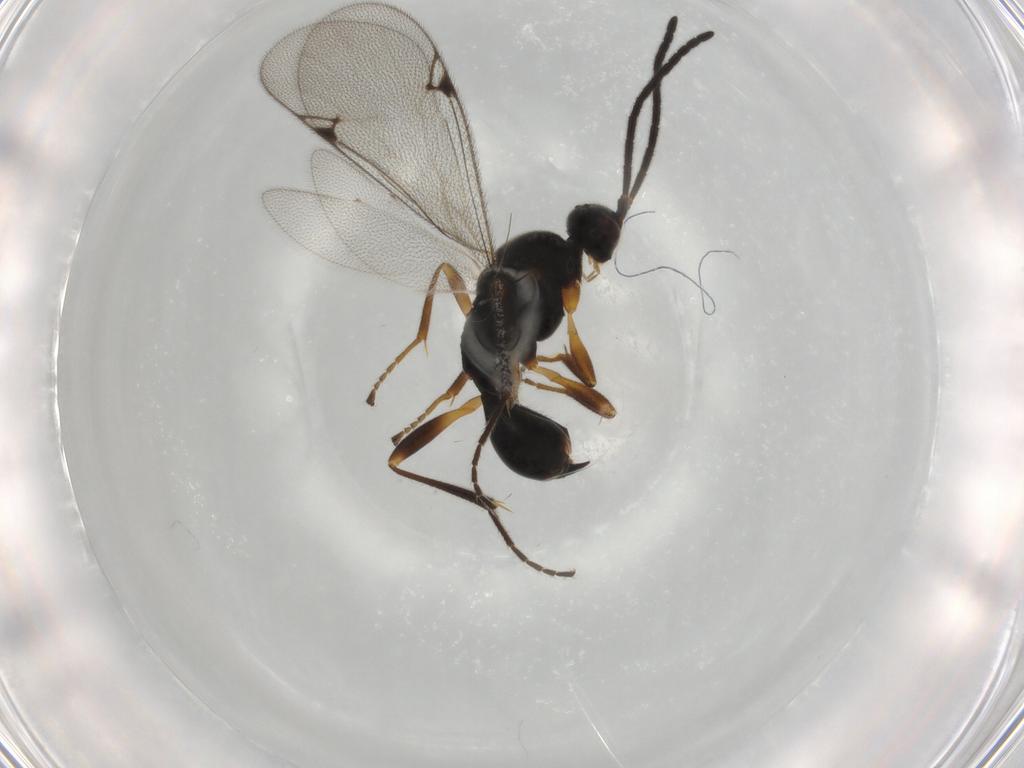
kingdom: Animalia
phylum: Arthropoda
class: Insecta
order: Hymenoptera
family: Proctotrupidae
